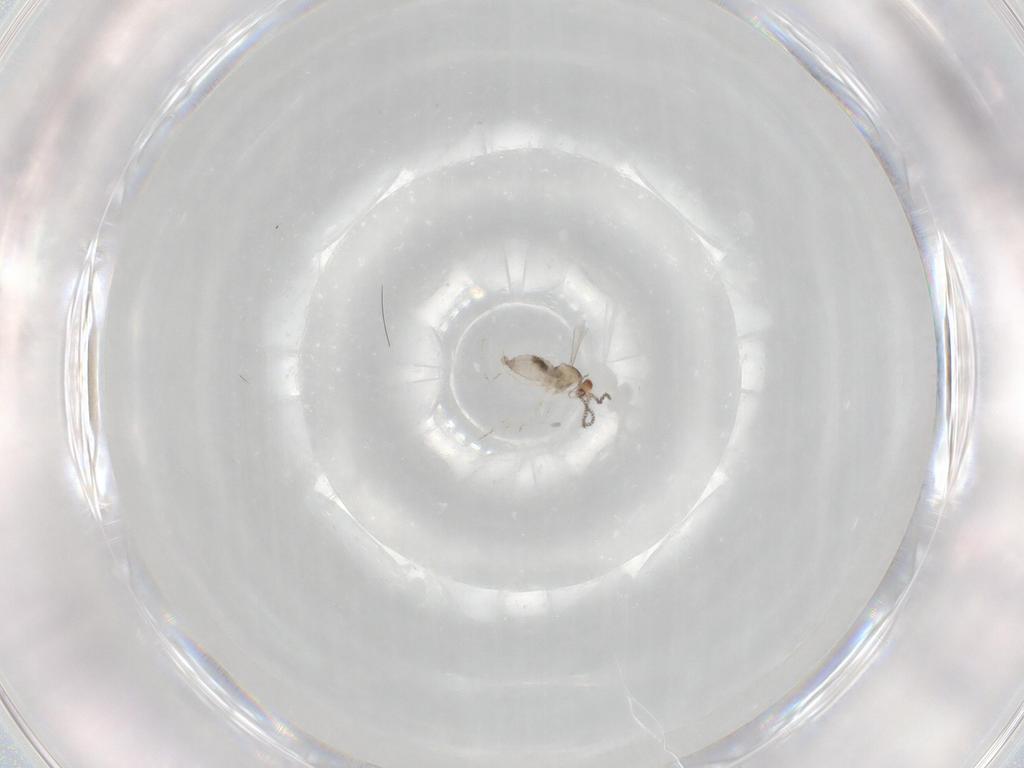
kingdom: Animalia
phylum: Arthropoda
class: Insecta
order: Diptera
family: Cecidomyiidae
